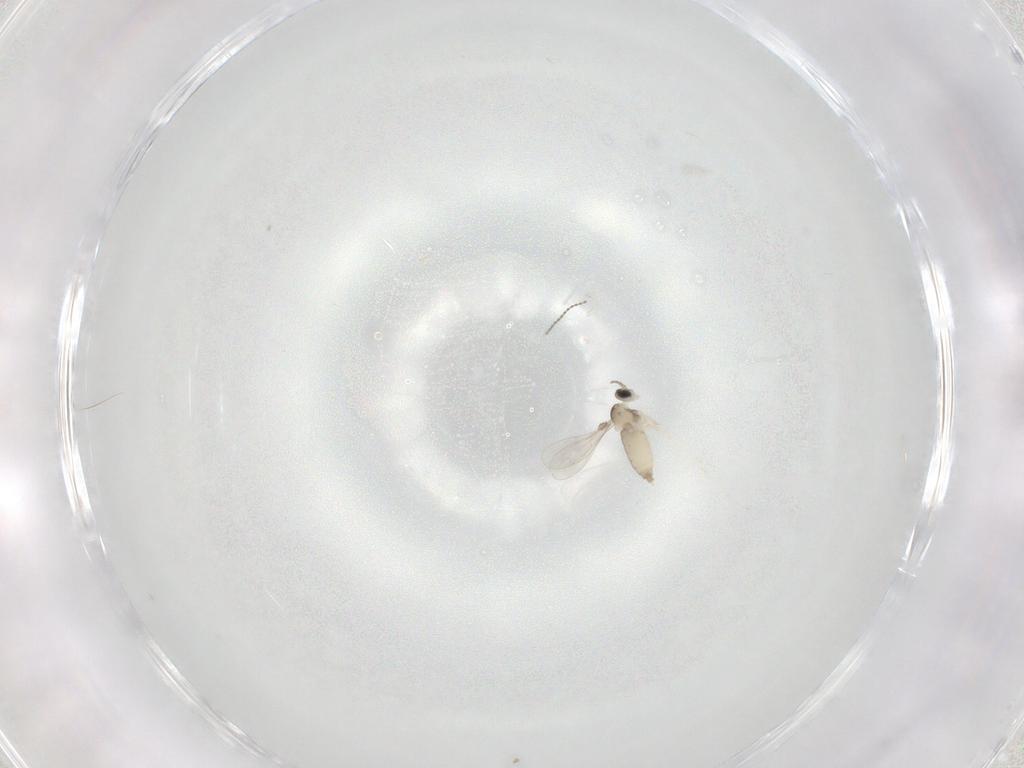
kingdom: Animalia
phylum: Arthropoda
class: Insecta
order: Diptera
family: Cecidomyiidae
